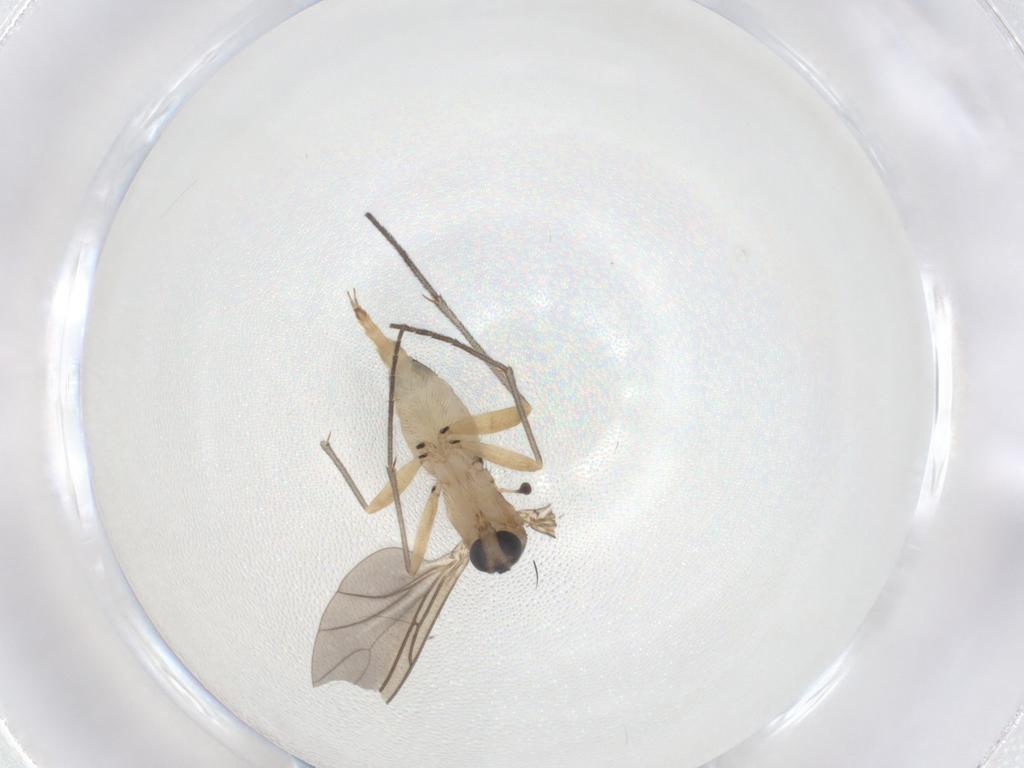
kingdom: Animalia
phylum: Arthropoda
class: Insecta
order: Diptera
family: Sciaridae
